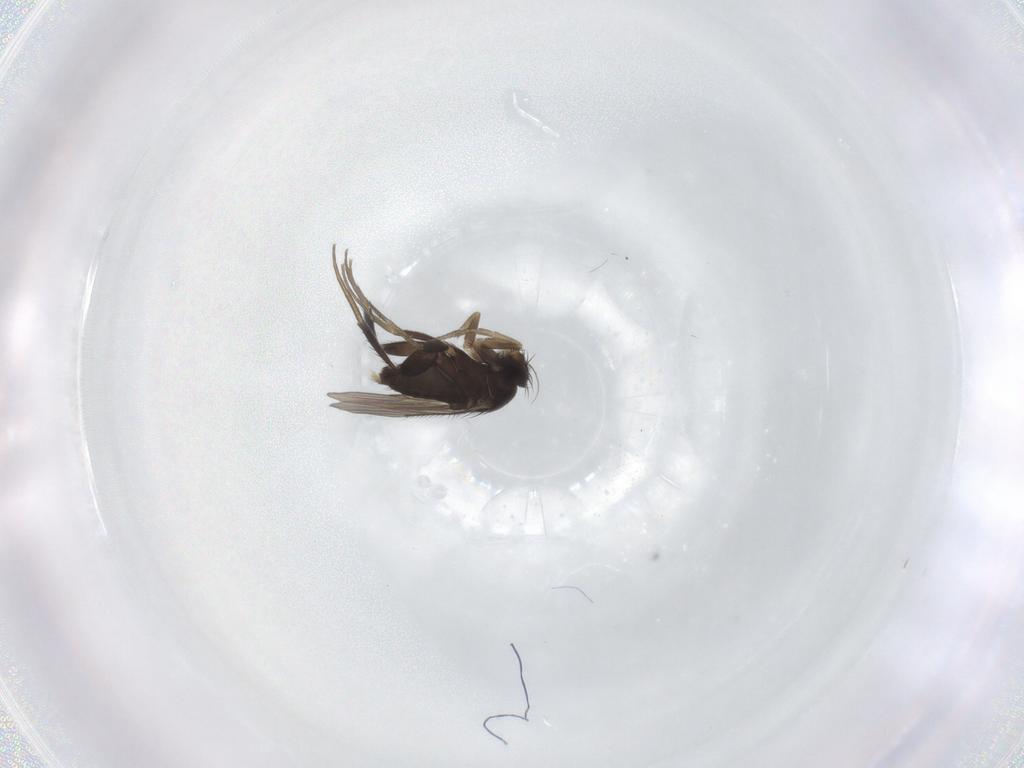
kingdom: Animalia
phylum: Arthropoda
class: Insecta
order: Diptera
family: Phoridae
